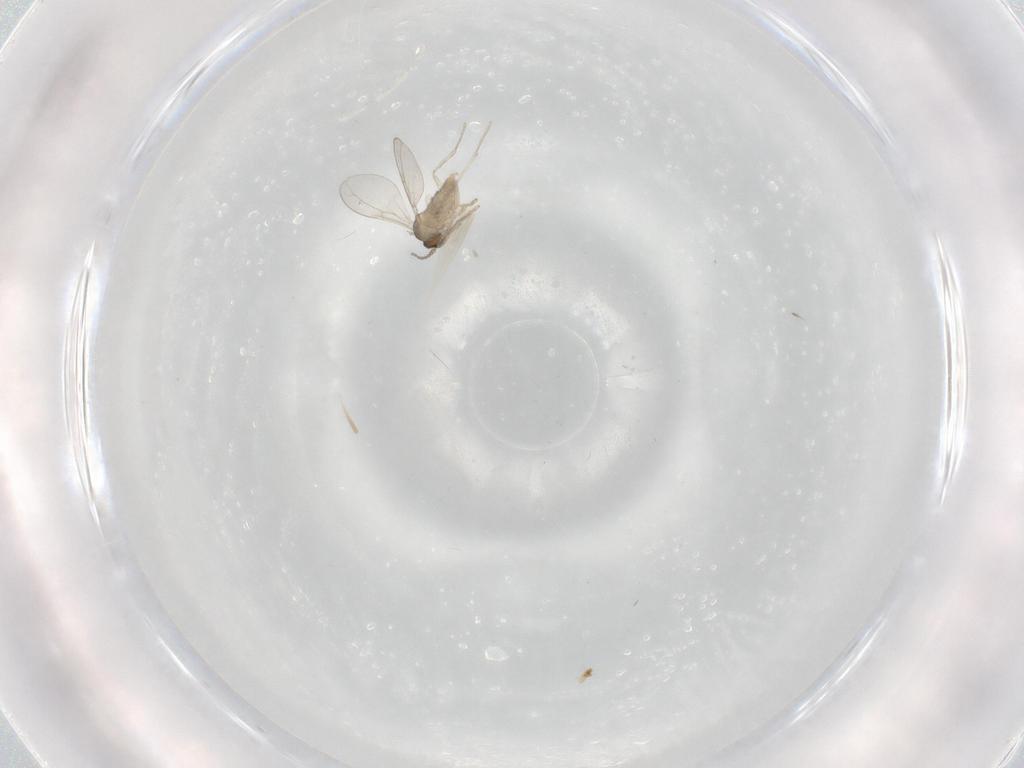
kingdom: Animalia
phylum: Arthropoda
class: Insecta
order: Diptera
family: Cecidomyiidae
